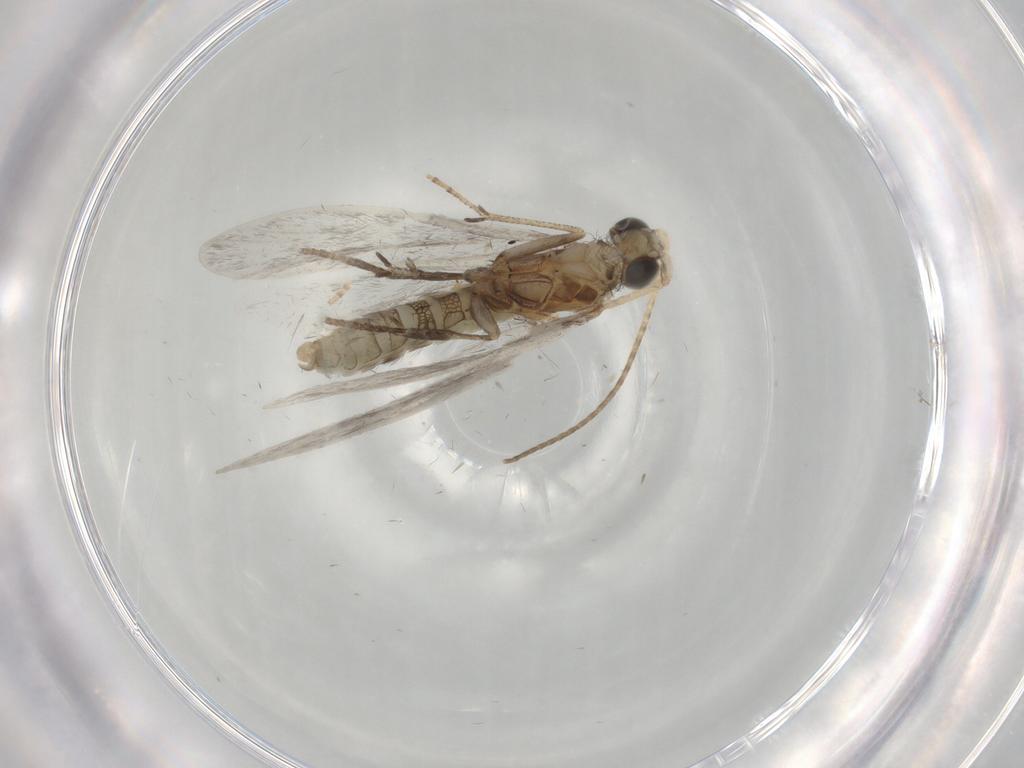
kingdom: Animalia
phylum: Arthropoda
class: Insecta
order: Trichoptera
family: Helicopsychidae
